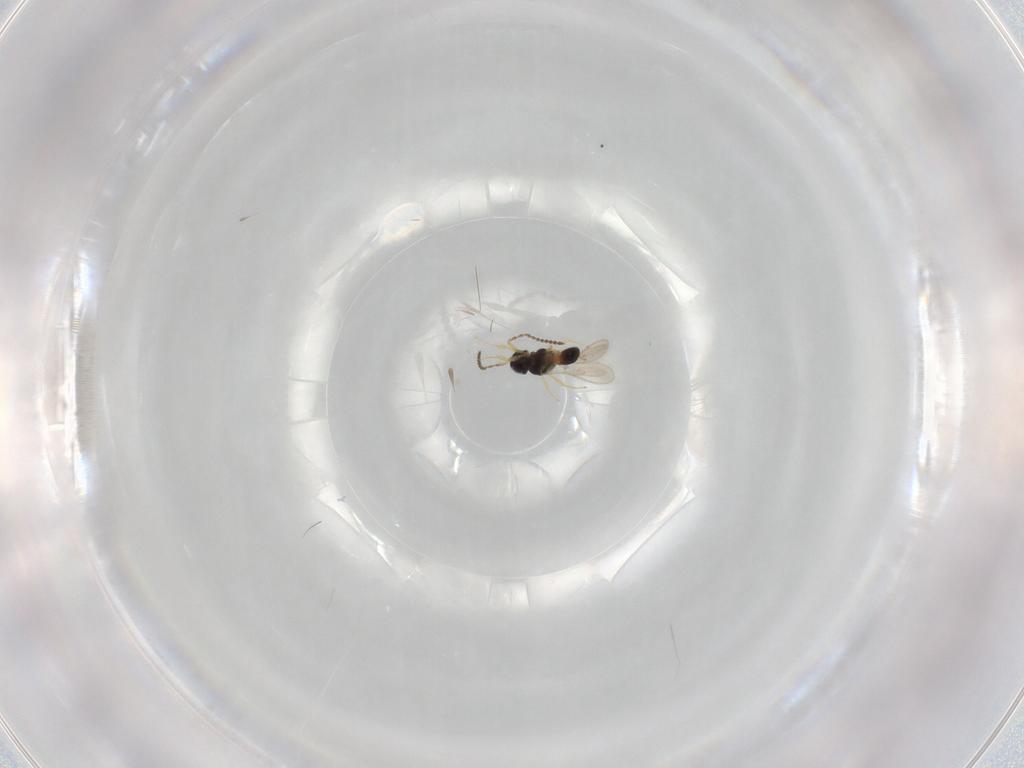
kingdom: Animalia
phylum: Arthropoda
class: Insecta
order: Hymenoptera
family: Scelionidae
